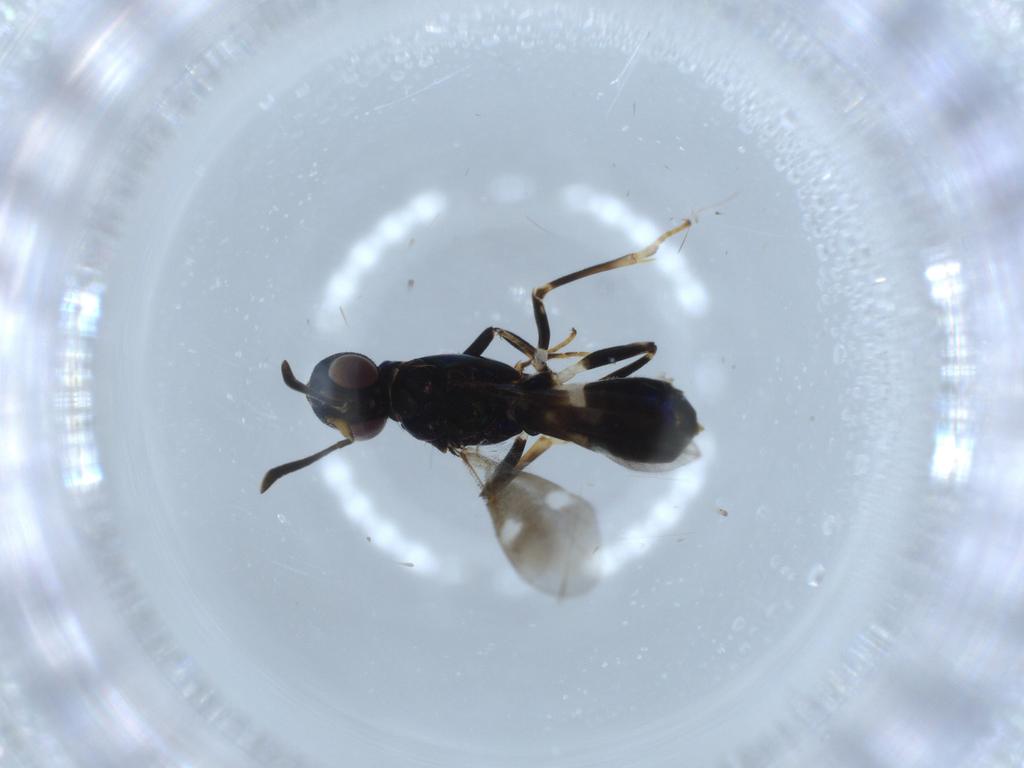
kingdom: Animalia
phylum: Arthropoda
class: Insecta
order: Hymenoptera
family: Eupelmidae
